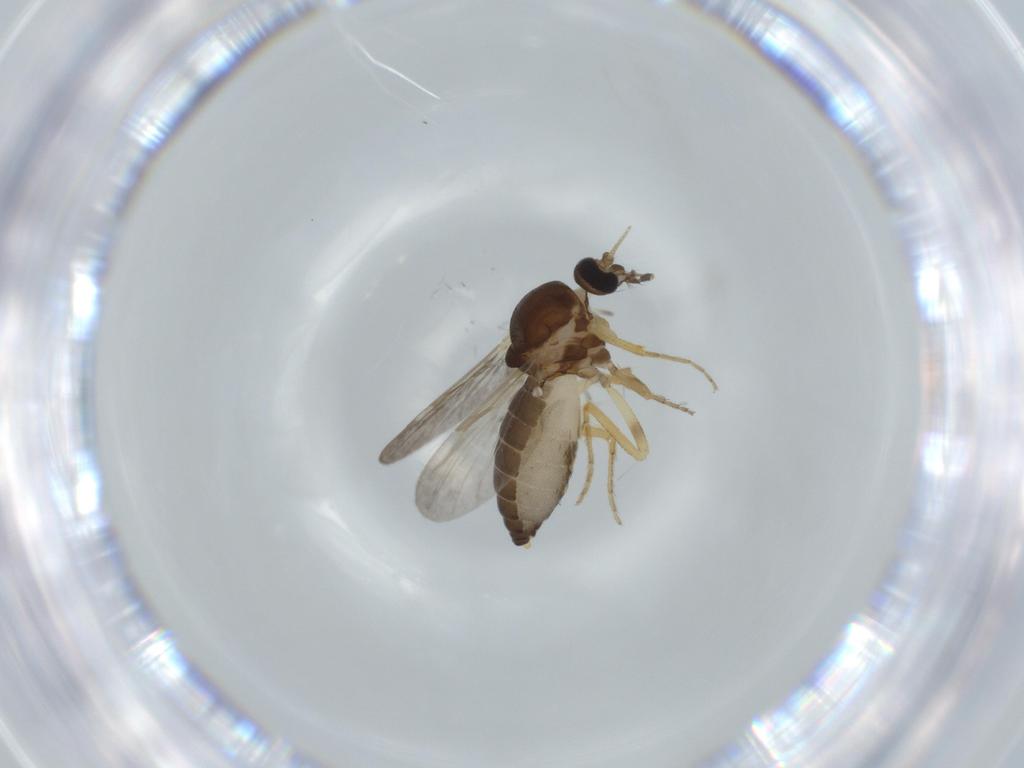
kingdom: Animalia
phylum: Arthropoda
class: Insecta
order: Diptera
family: Ceratopogonidae
